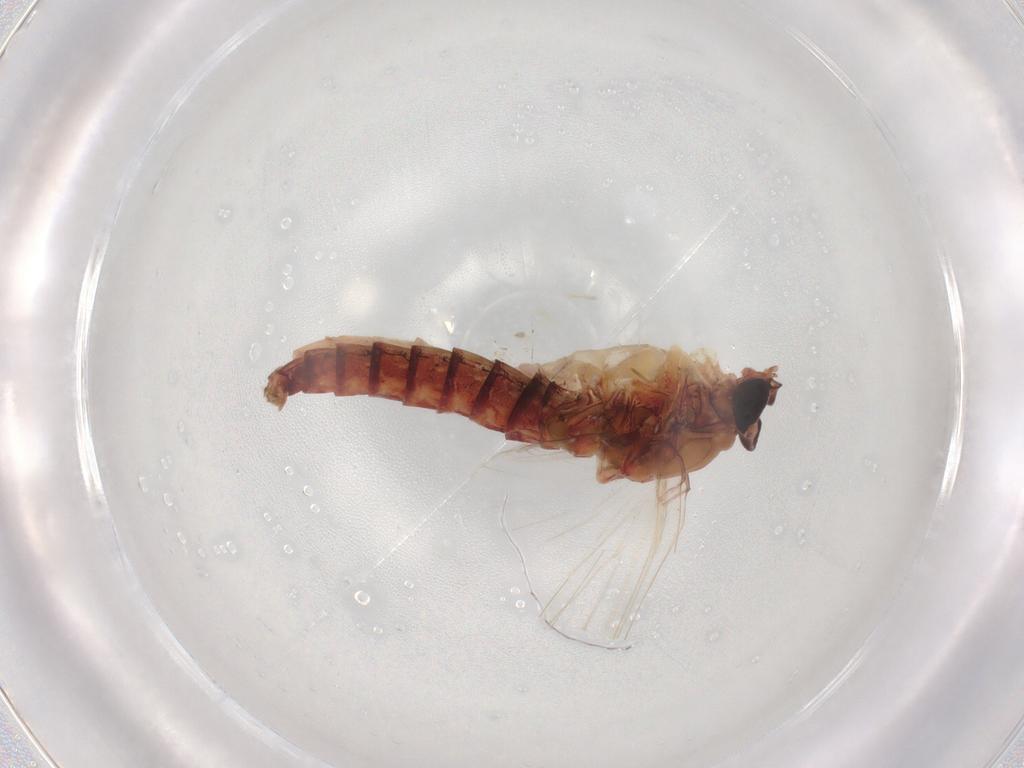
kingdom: Animalia
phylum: Arthropoda
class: Insecta
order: Ephemeroptera
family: Baetidae
